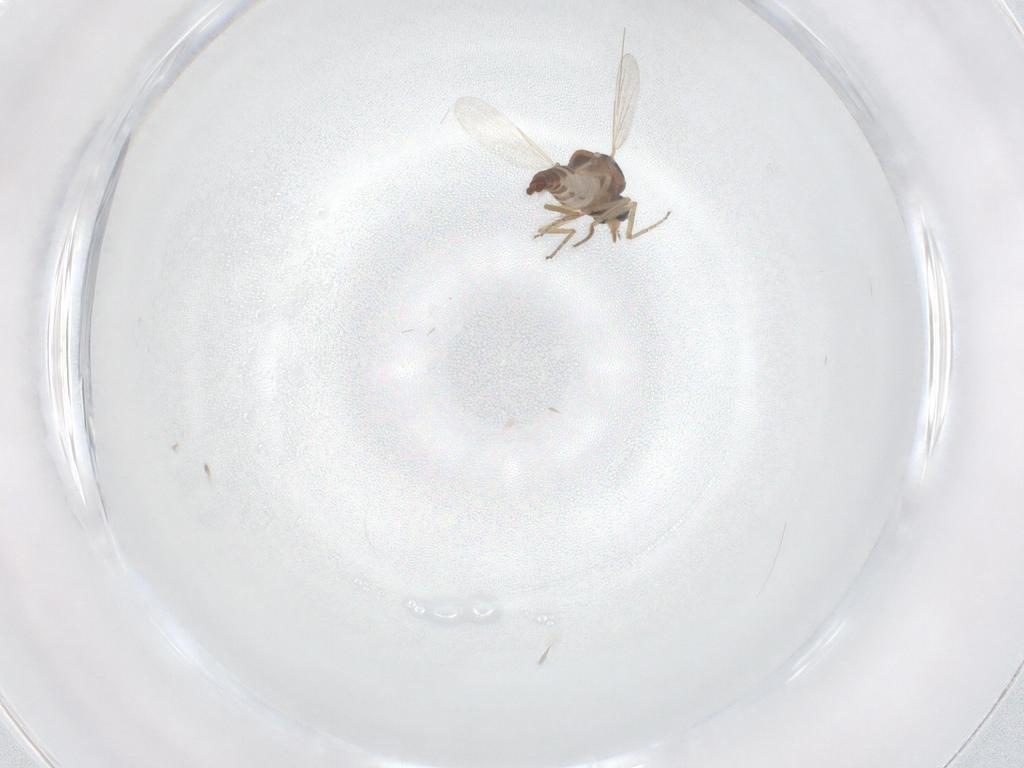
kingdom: Animalia
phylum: Arthropoda
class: Insecta
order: Diptera
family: Ceratopogonidae
